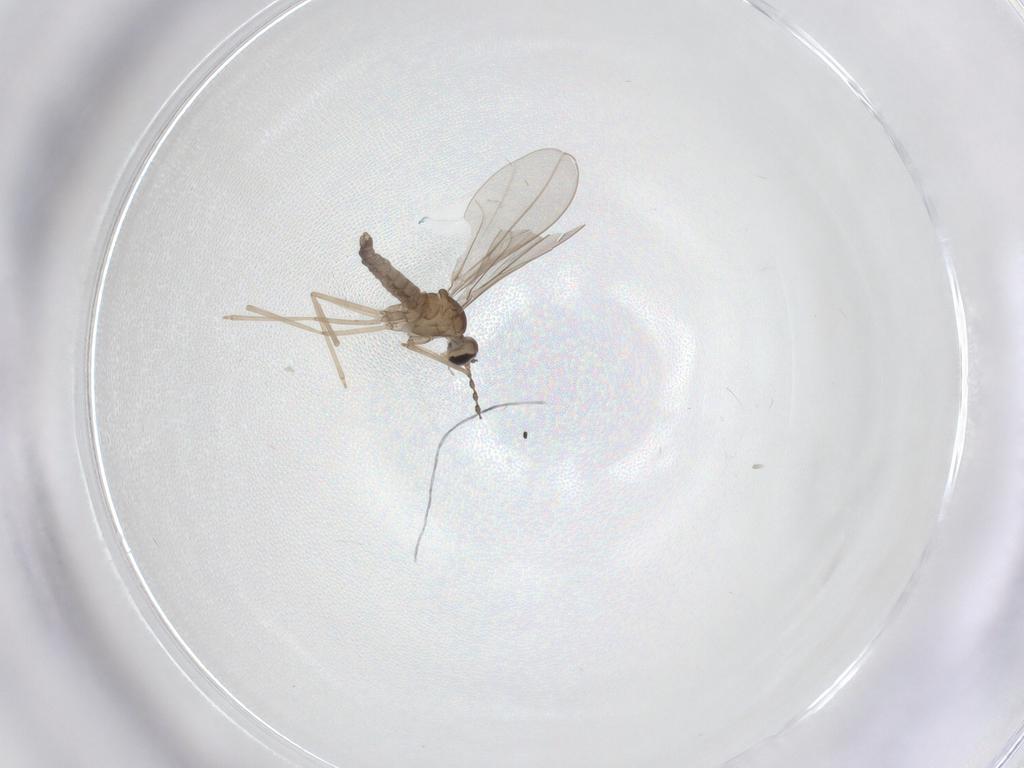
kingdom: Animalia
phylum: Arthropoda
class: Insecta
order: Diptera
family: Cecidomyiidae
